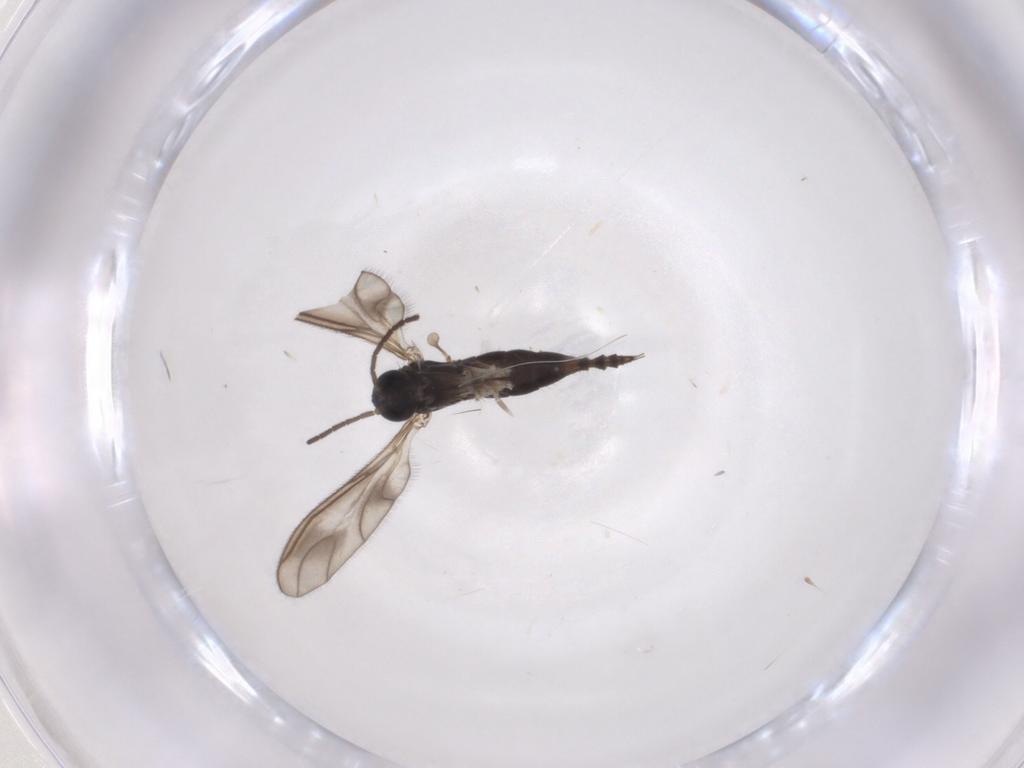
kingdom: Animalia
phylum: Arthropoda
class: Insecta
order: Diptera
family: Sciaridae
